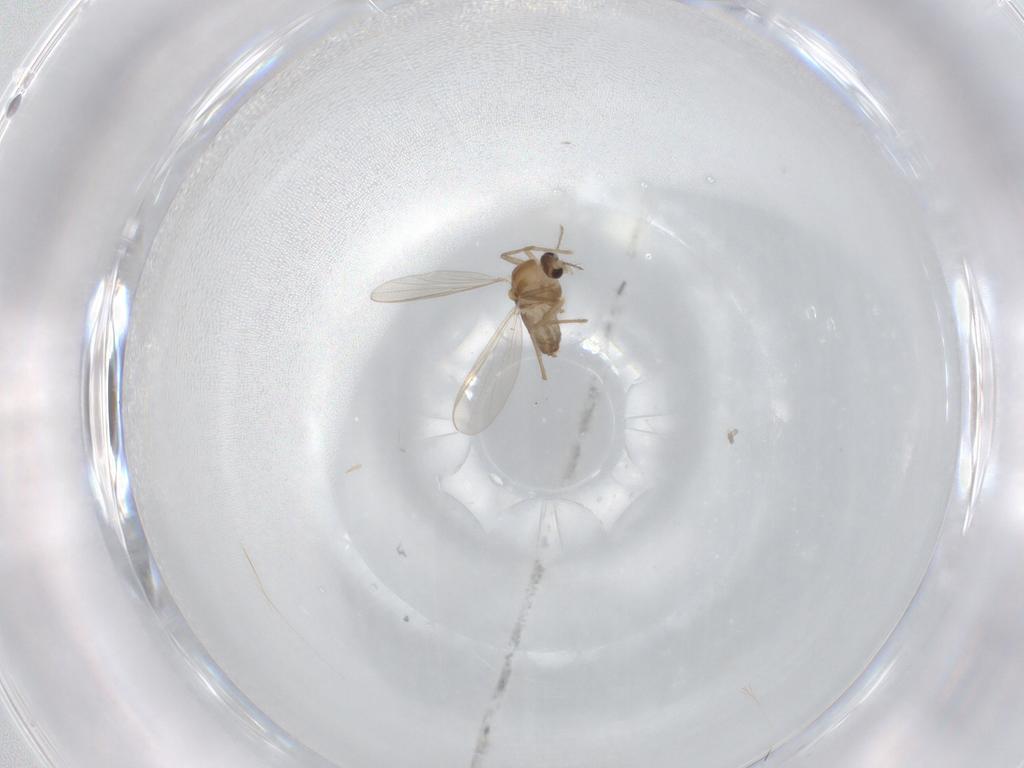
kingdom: Animalia
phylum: Arthropoda
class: Insecta
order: Diptera
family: Chironomidae
